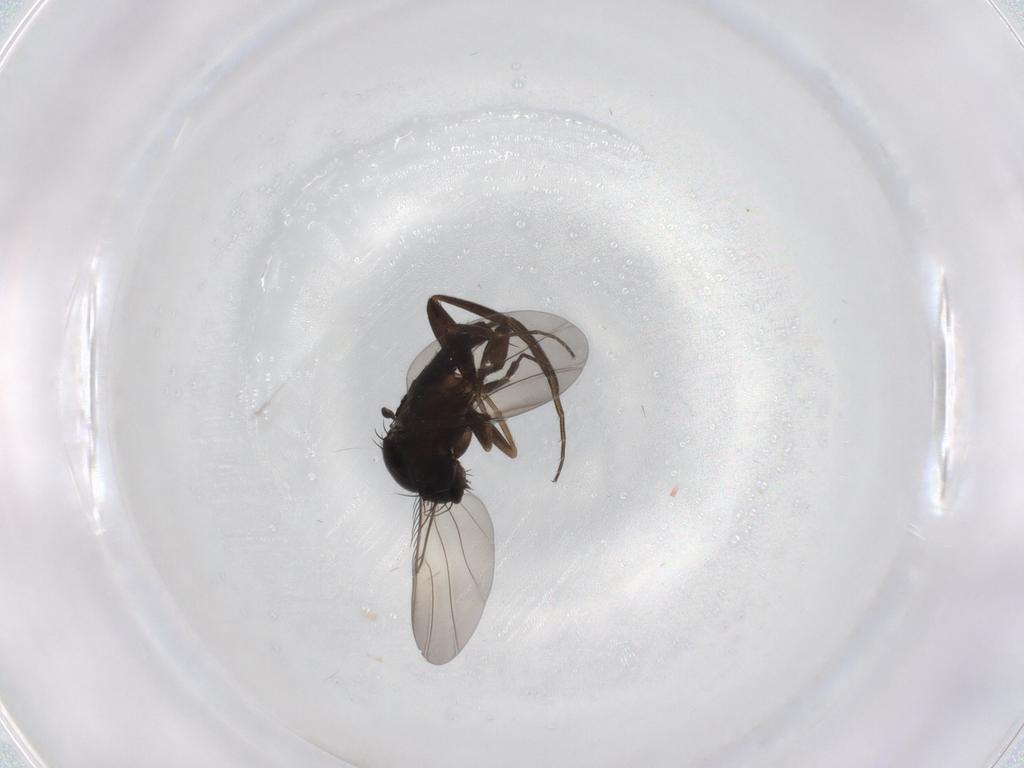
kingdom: Animalia
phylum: Arthropoda
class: Insecta
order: Diptera
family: Phoridae
